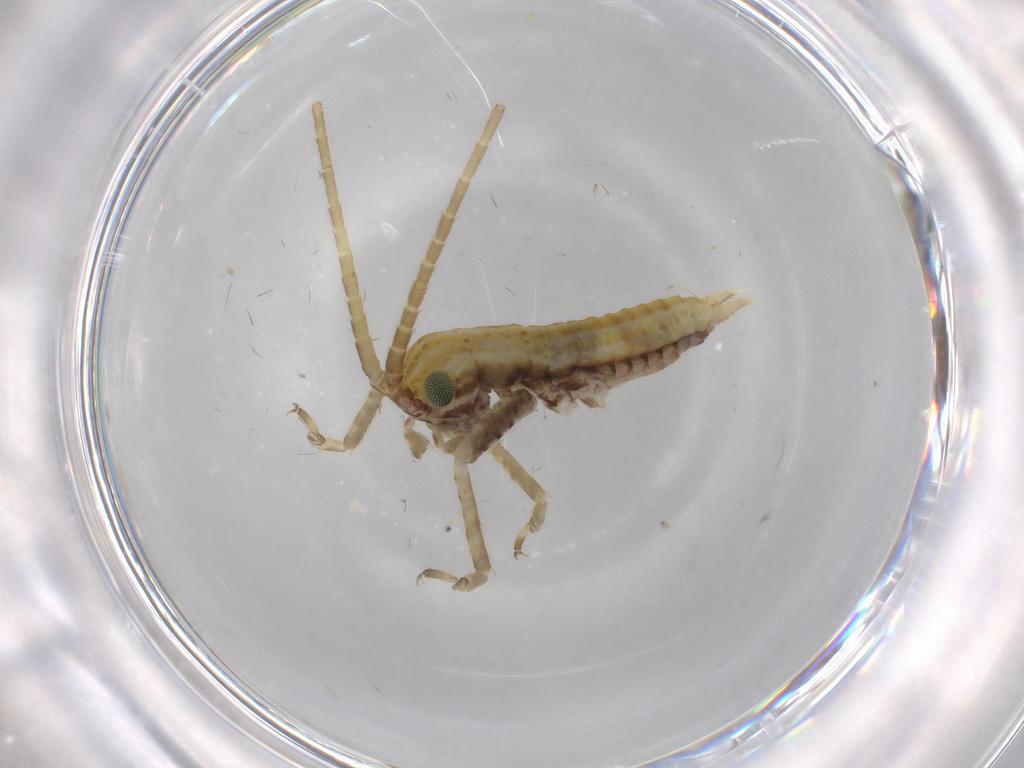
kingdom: Animalia
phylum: Arthropoda
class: Insecta
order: Orthoptera
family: Gryllidae
